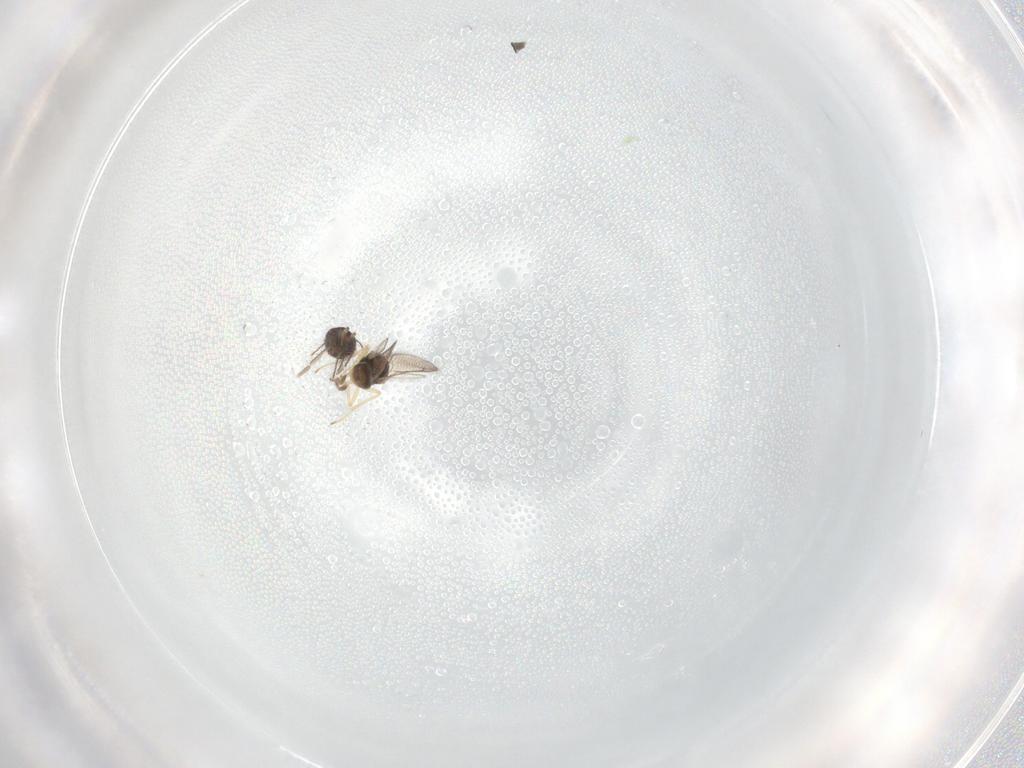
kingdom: Animalia
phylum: Arthropoda
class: Insecta
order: Hymenoptera
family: Eulophidae
